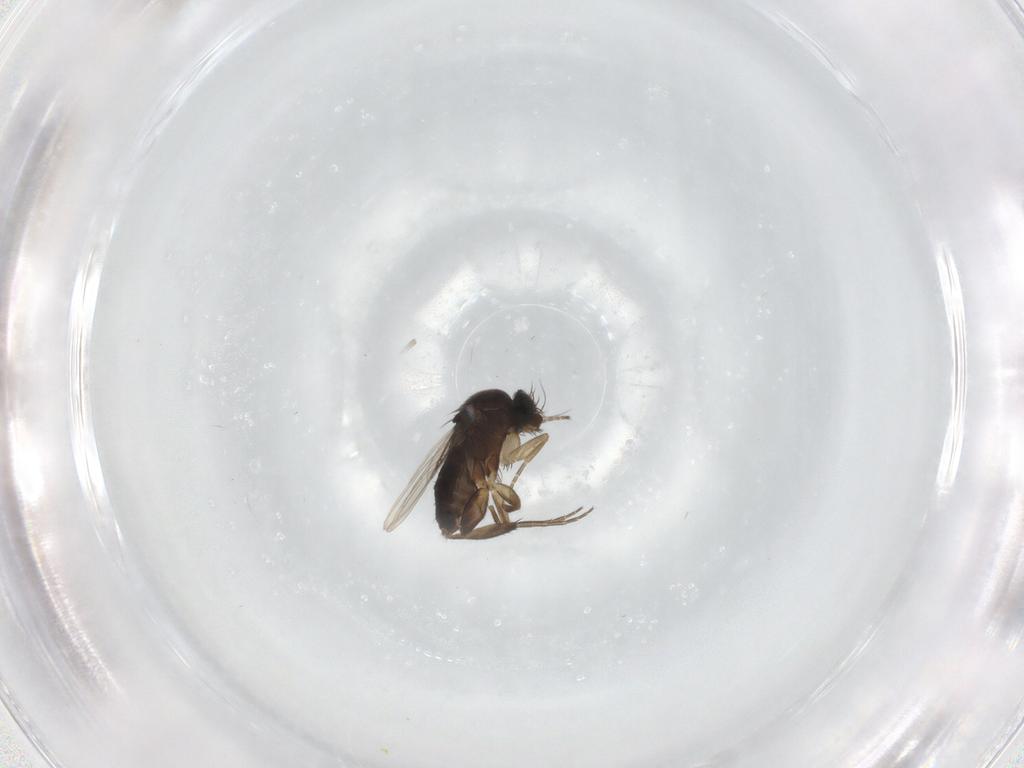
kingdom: Animalia
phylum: Arthropoda
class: Insecta
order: Diptera
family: Phoridae
